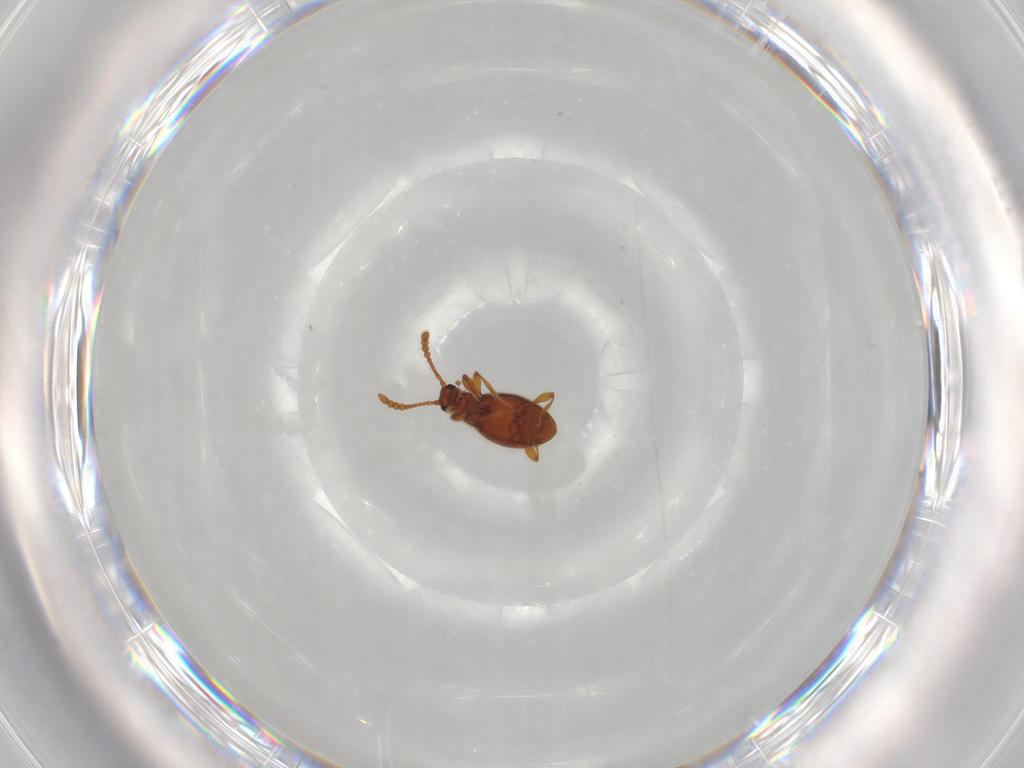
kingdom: Animalia
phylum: Arthropoda
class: Insecta
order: Coleoptera
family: Staphylinidae
